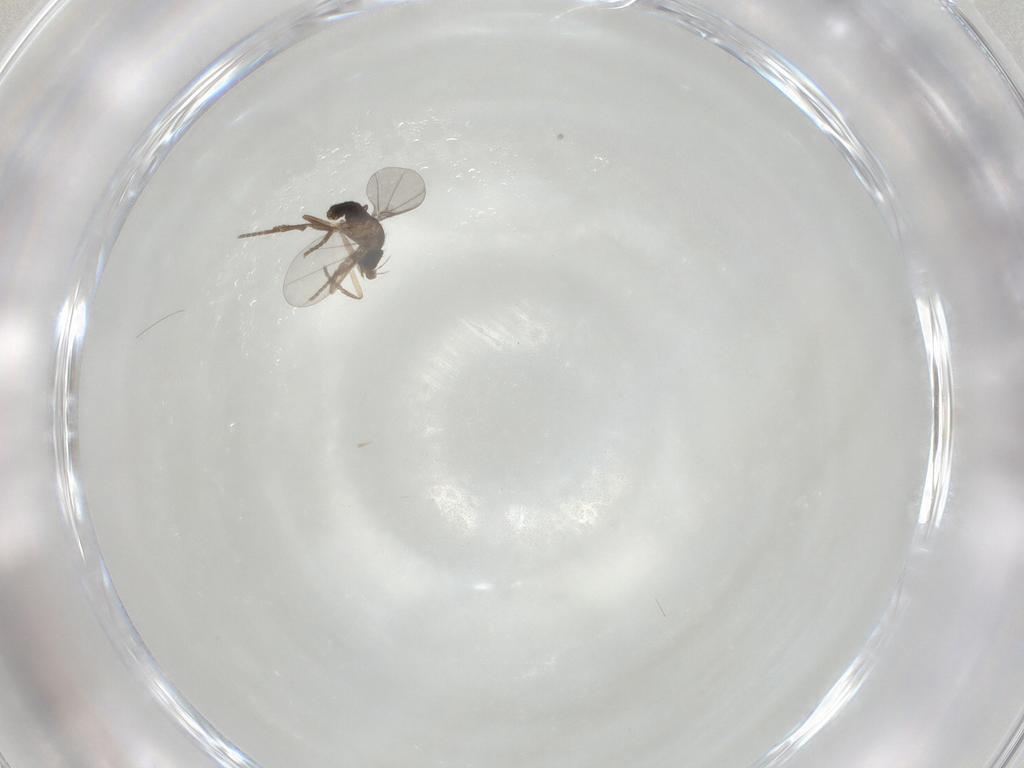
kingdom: Animalia
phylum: Arthropoda
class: Insecta
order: Diptera
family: Phoridae
